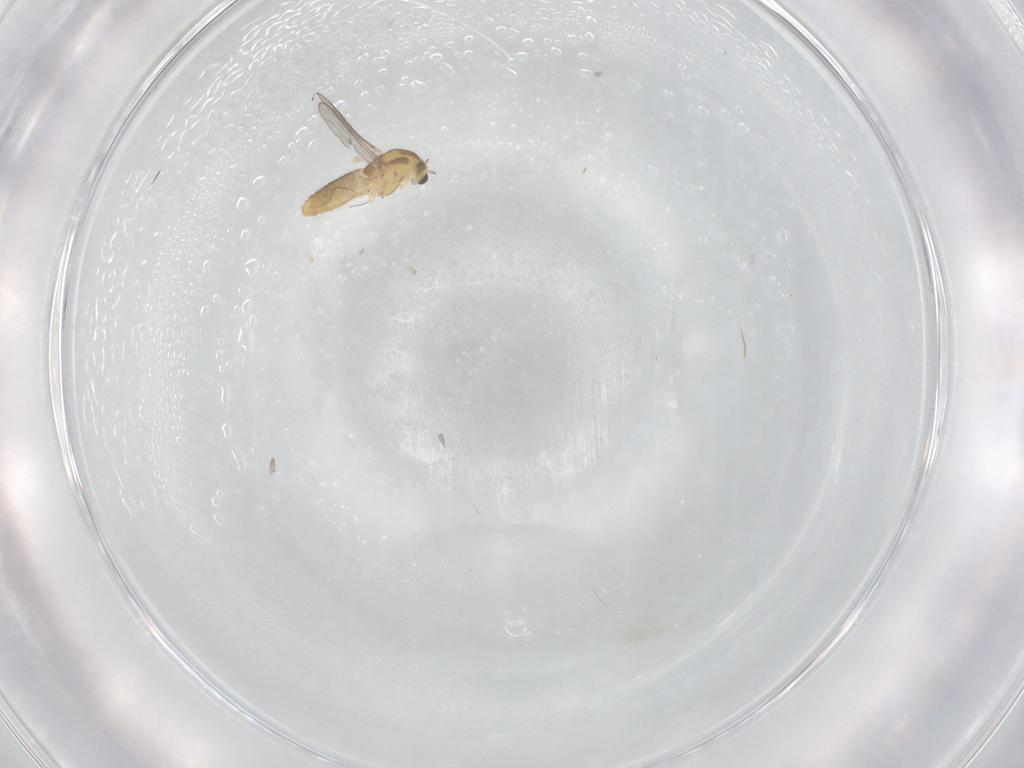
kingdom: Animalia
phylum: Arthropoda
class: Insecta
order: Diptera
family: Chironomidae
